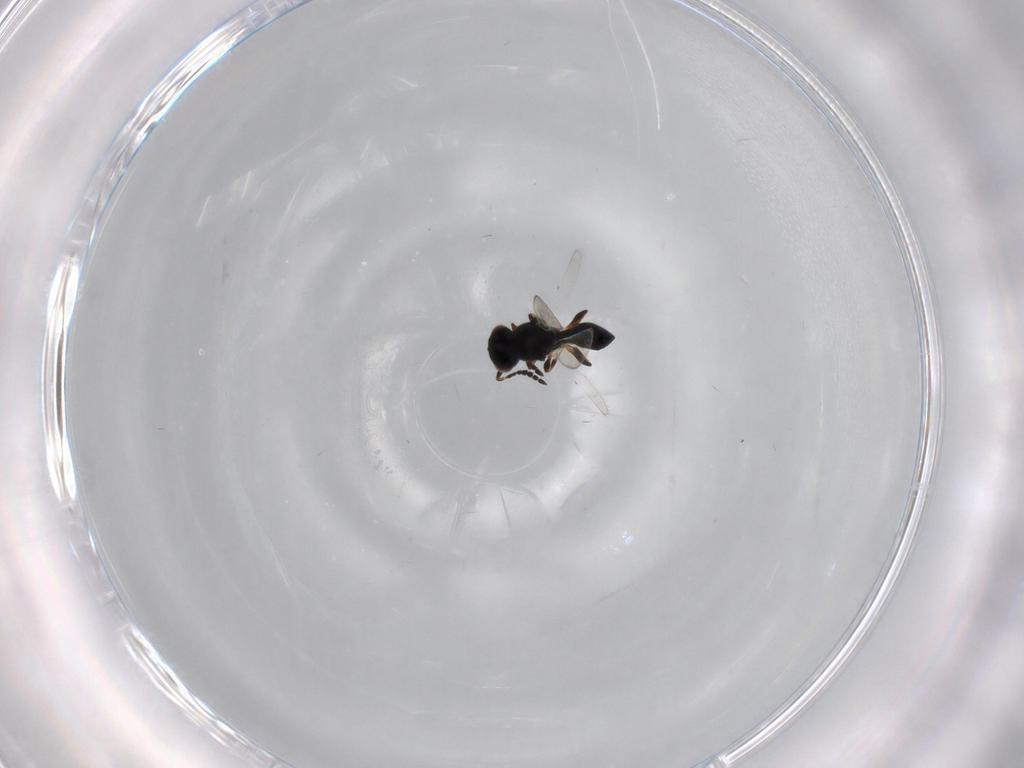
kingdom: Animalia
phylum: Arthropoda
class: Insecta
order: Hymenoptera
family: Platygastridae
